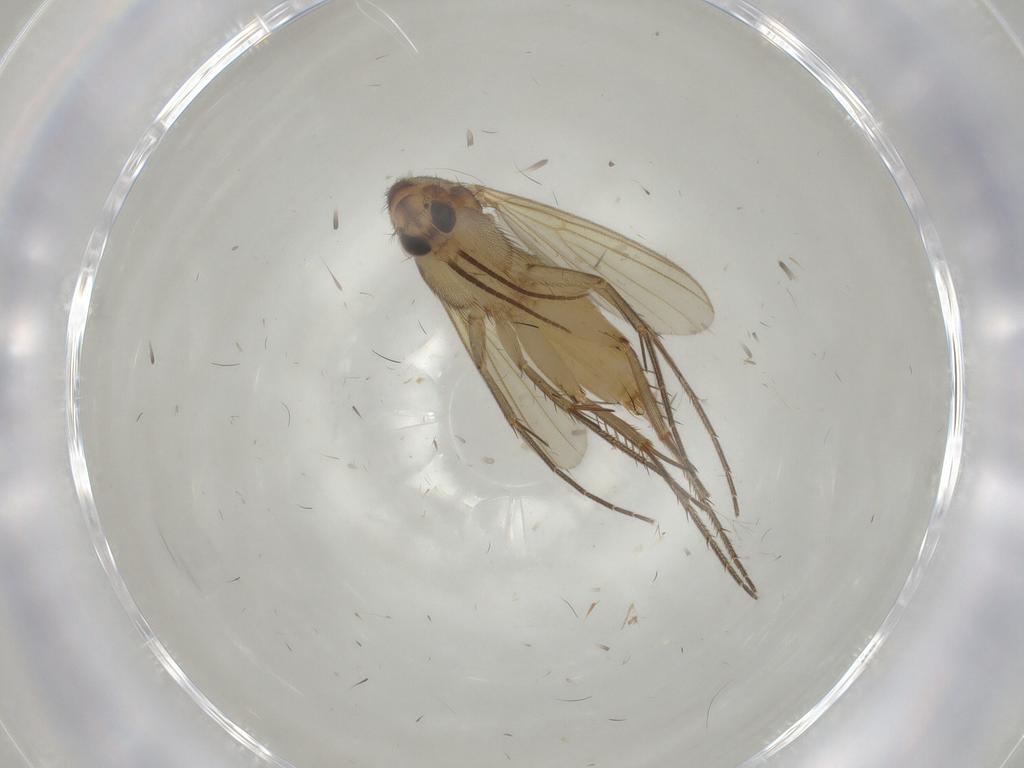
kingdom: Animalia
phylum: Arthropoda
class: Insecta
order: Diptera
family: Mycetophilidae
